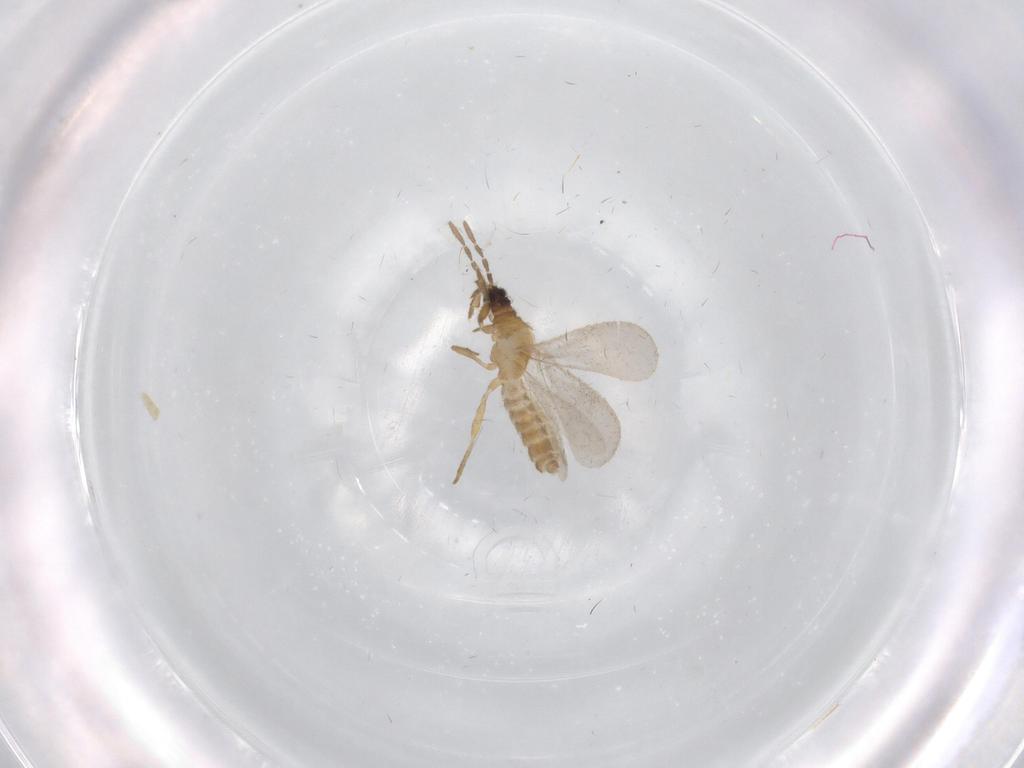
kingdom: Animalia
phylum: Arthropoda
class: Insecta
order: Hemiptera
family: Enicocephalidae
